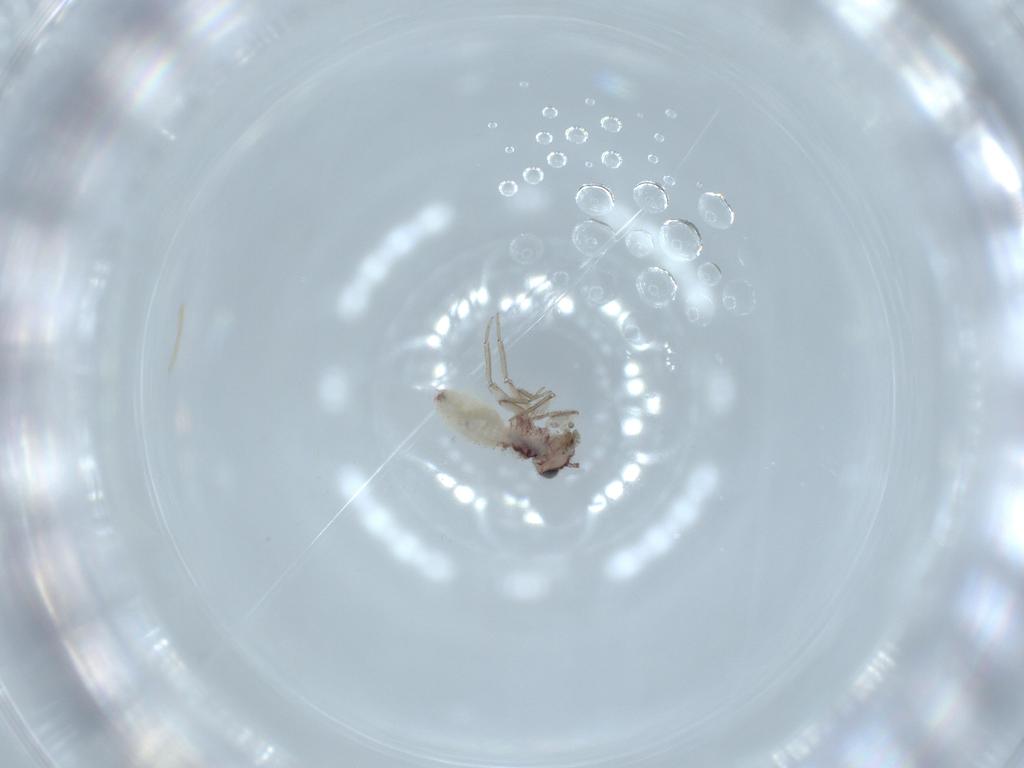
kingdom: Animalia
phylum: Arthropoda
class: Insecta
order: Psocodea
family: Lepidopsocidae
